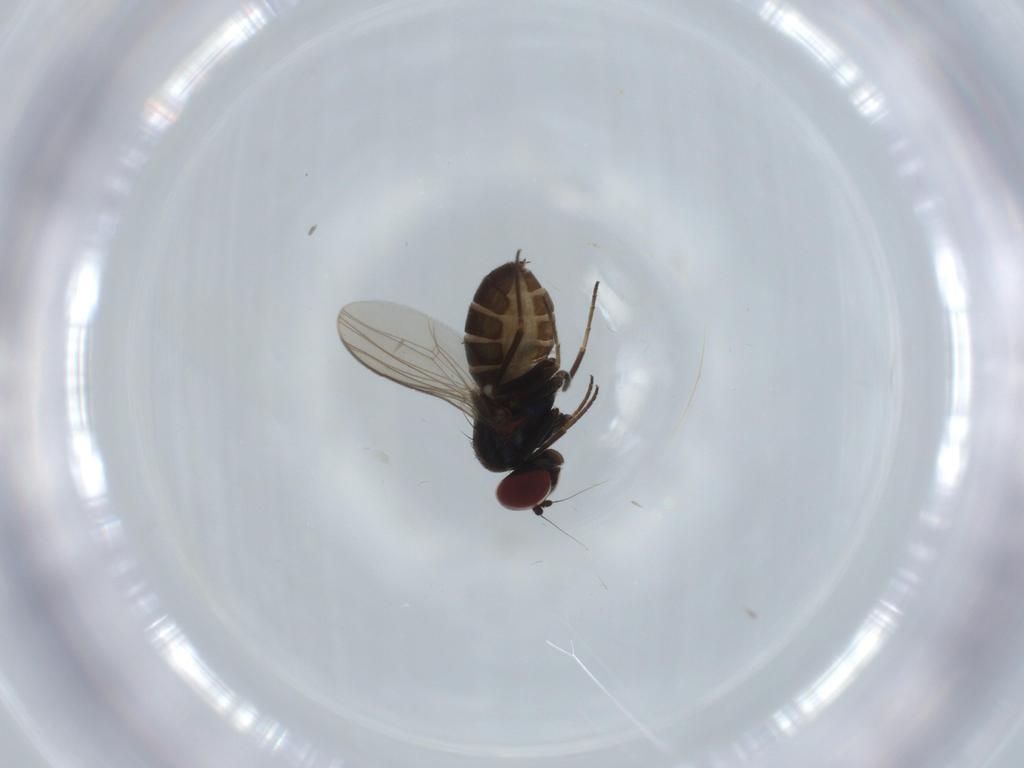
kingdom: Animalia
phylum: Arthropoda
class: Insecta
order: Diptera
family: Dolichopodidae
